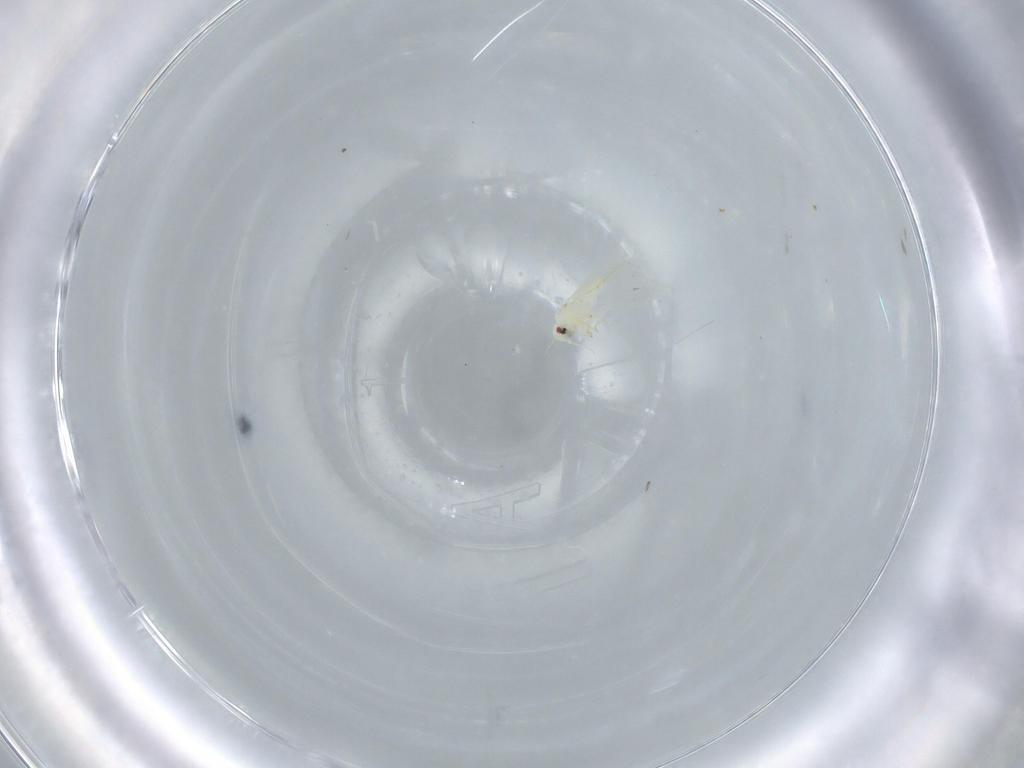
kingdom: Animalia
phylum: Arthropoda
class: Insecta
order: Hemiptera
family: Aleyrodidae
